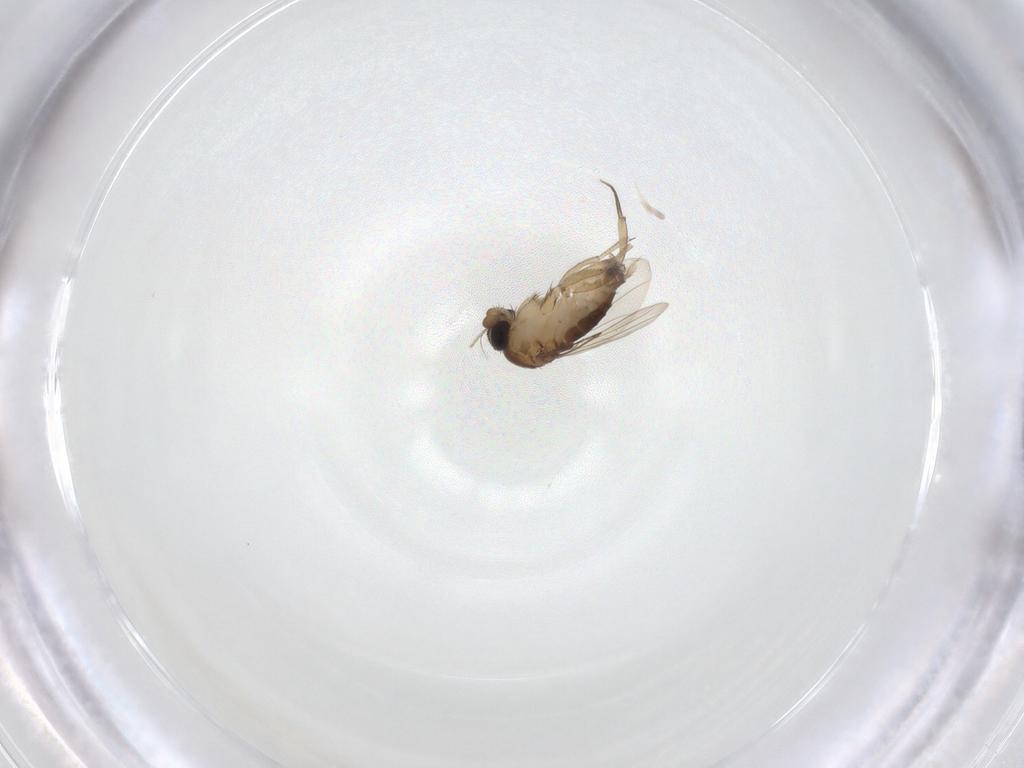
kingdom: Animalia
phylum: Arthropoda
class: Insecta
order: Diptera
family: Phoridae
